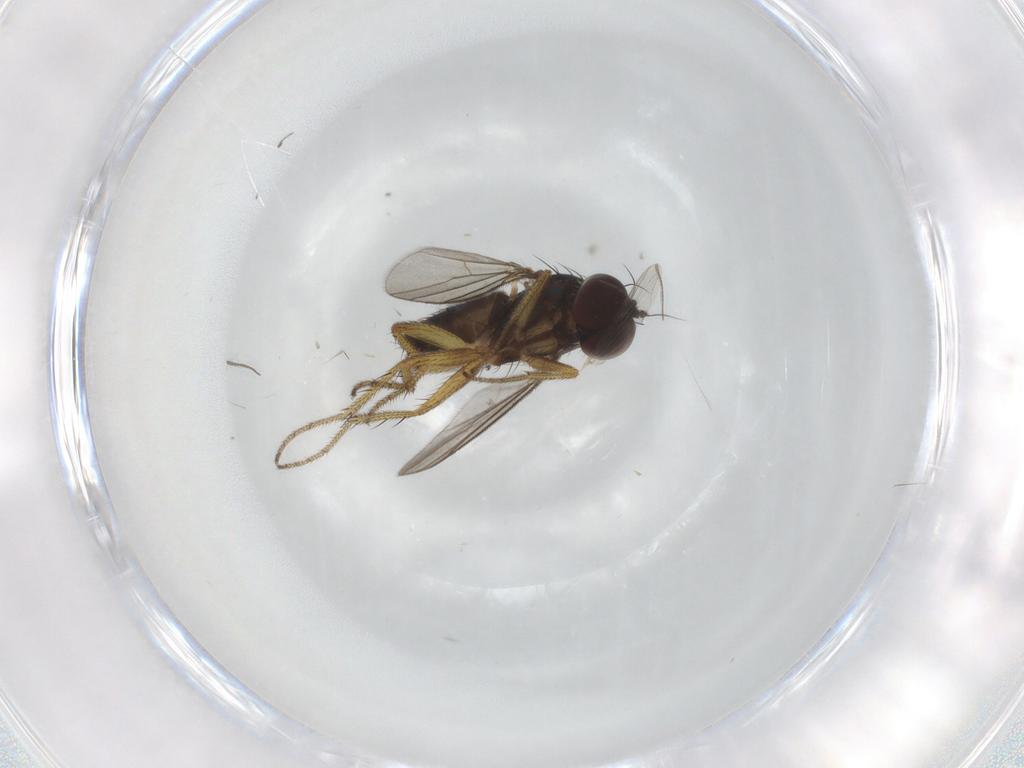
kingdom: Animalia
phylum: Arthropoda
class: Insecta
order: Diptera
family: Dolichopodidae
